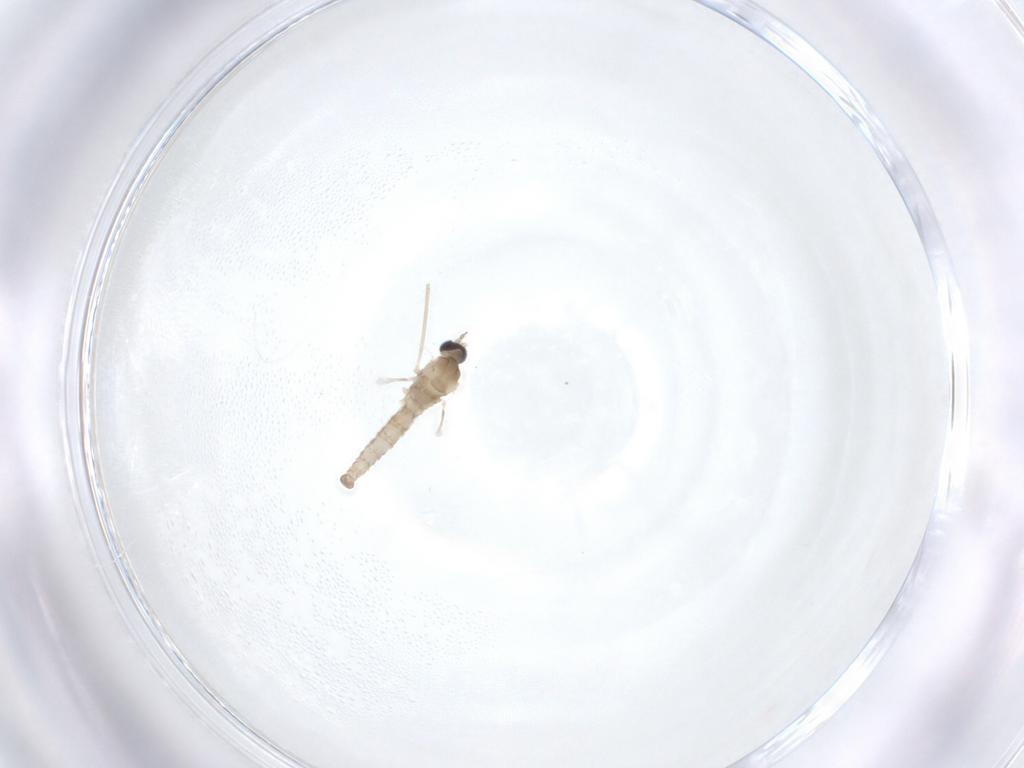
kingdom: Animalia
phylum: Arthropoda
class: Insecta
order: Diptera
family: Cecidomyiidae
